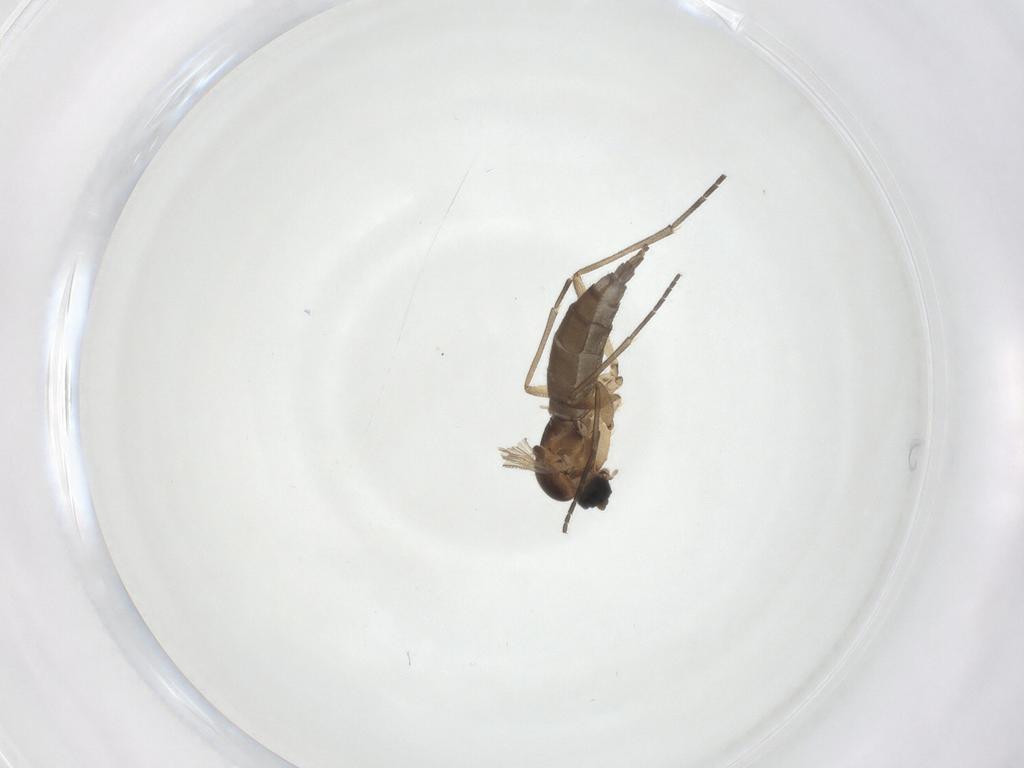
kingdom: Animalia
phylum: Arthropoda
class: Insecta
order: Diptera
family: Sciaridae
